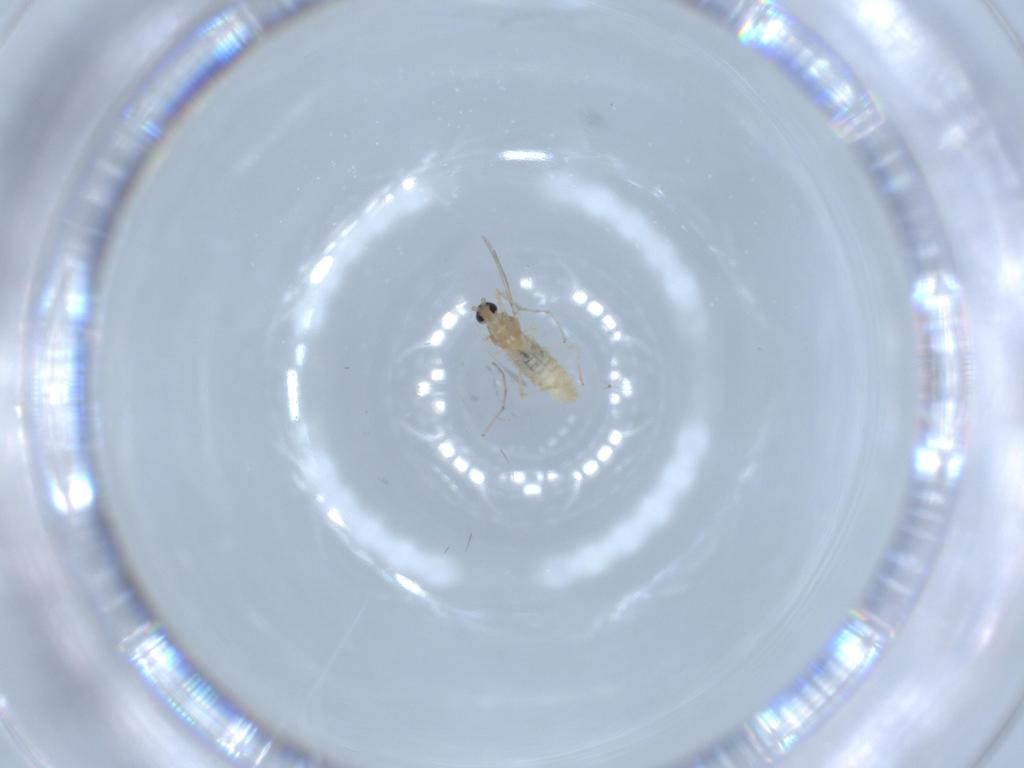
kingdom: Animalia
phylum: Arthropoda
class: Insecta
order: Diptera
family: Cecidomyiidae
